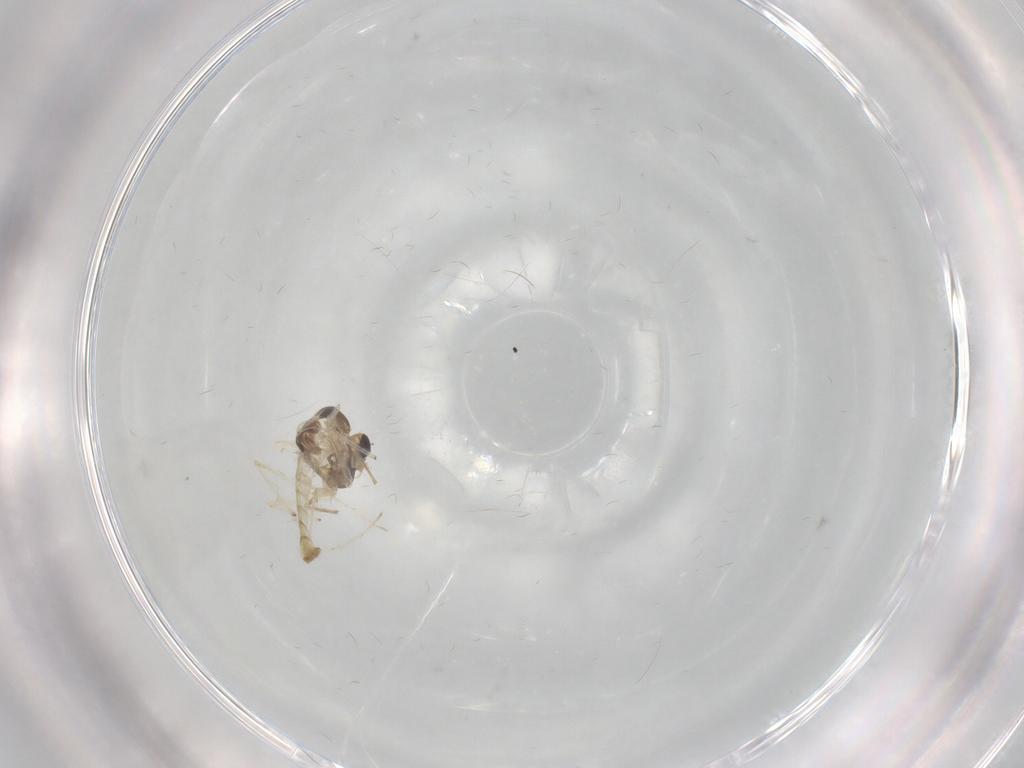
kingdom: Animalia
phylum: Arthropoda
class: Insecta
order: Diptera
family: Chironomidae
